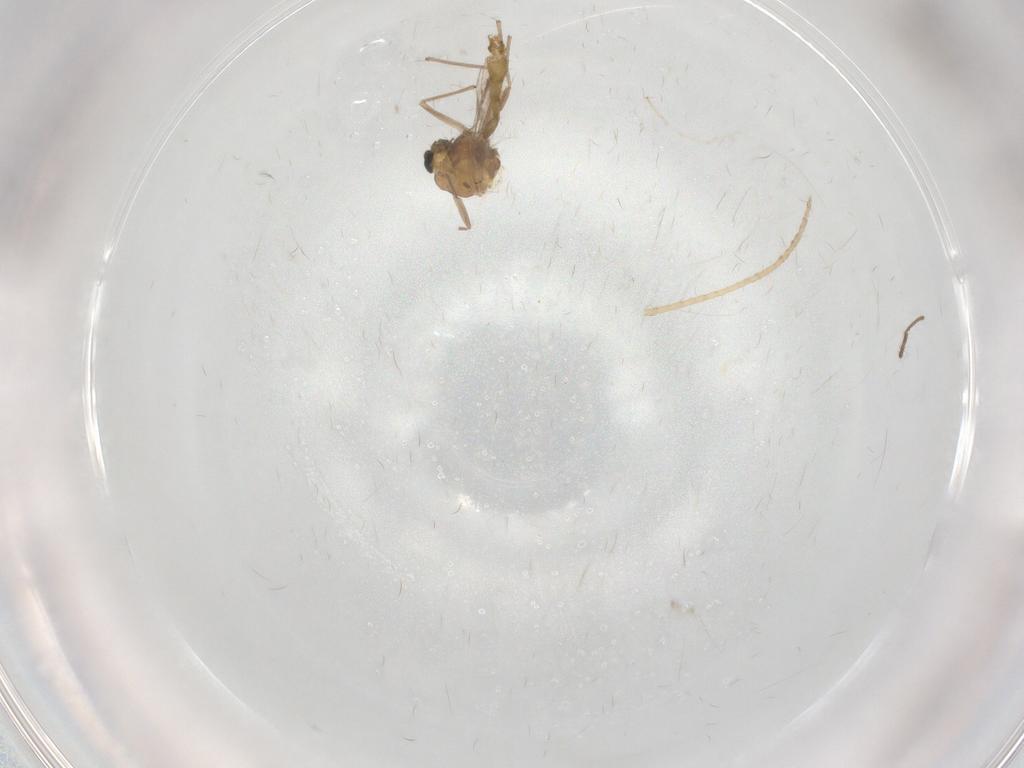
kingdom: Animalia
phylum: Arthropoda
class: Insecta
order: Diptera
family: Chironomidae
